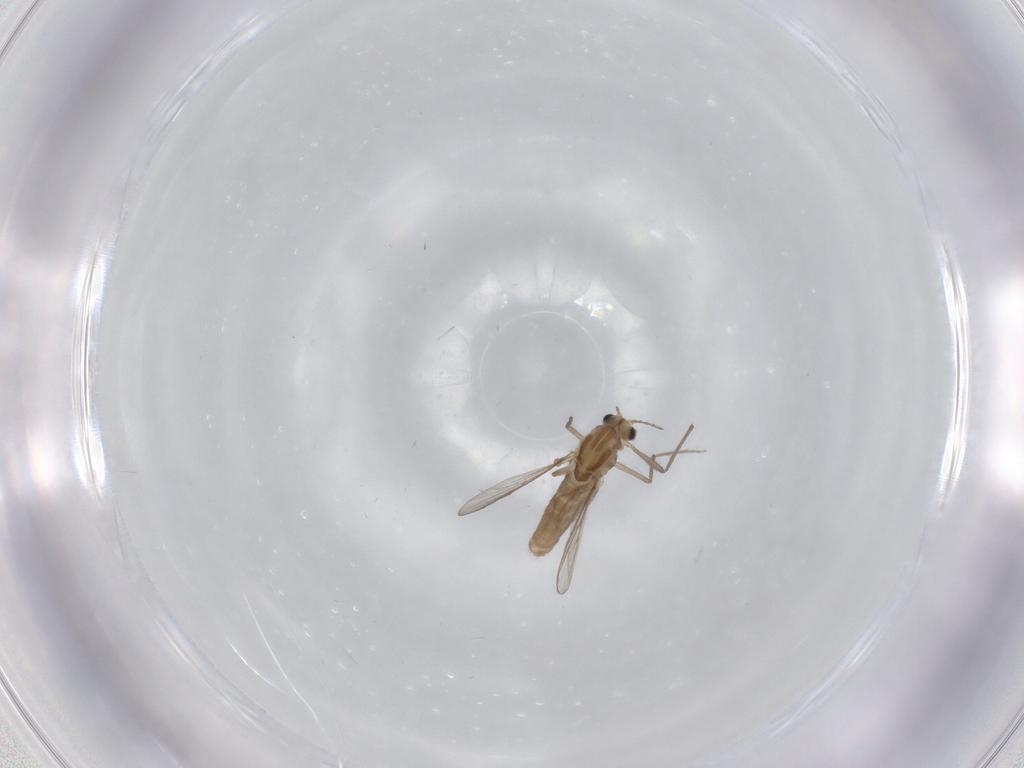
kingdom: Animalia
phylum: Arthropoda
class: Insecta
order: Diptera
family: Chironomidae
